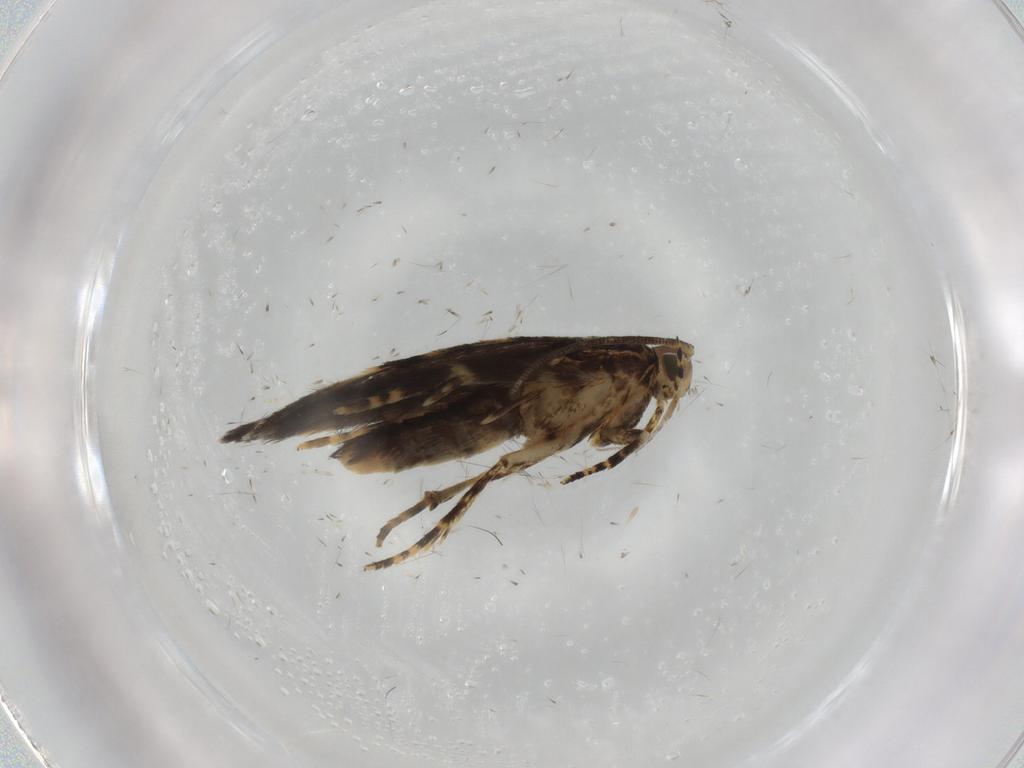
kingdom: Animalia
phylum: Arthropoda
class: Insecta
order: Lepidoptera
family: Oecophoridae
